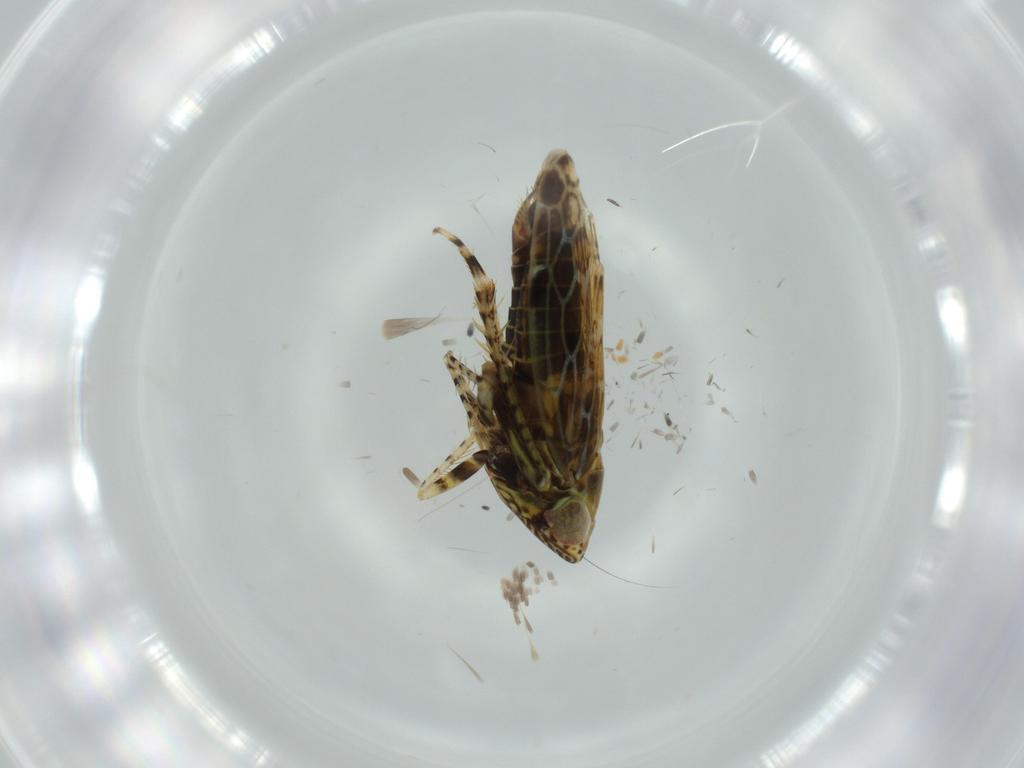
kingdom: Animalia
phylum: Arthropoda
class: Insecta
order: Hemiptera
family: Cicadellidae
